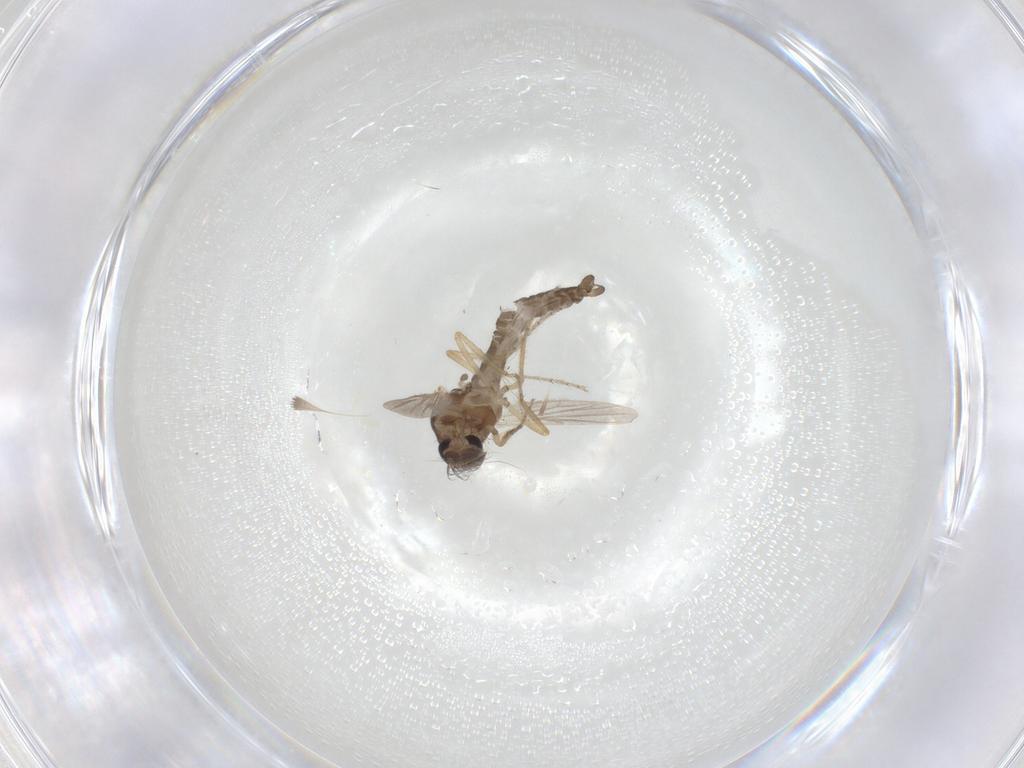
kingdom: Animalia
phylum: Arthropoda
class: Insecta
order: Diptera
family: Ceratopogonidae
